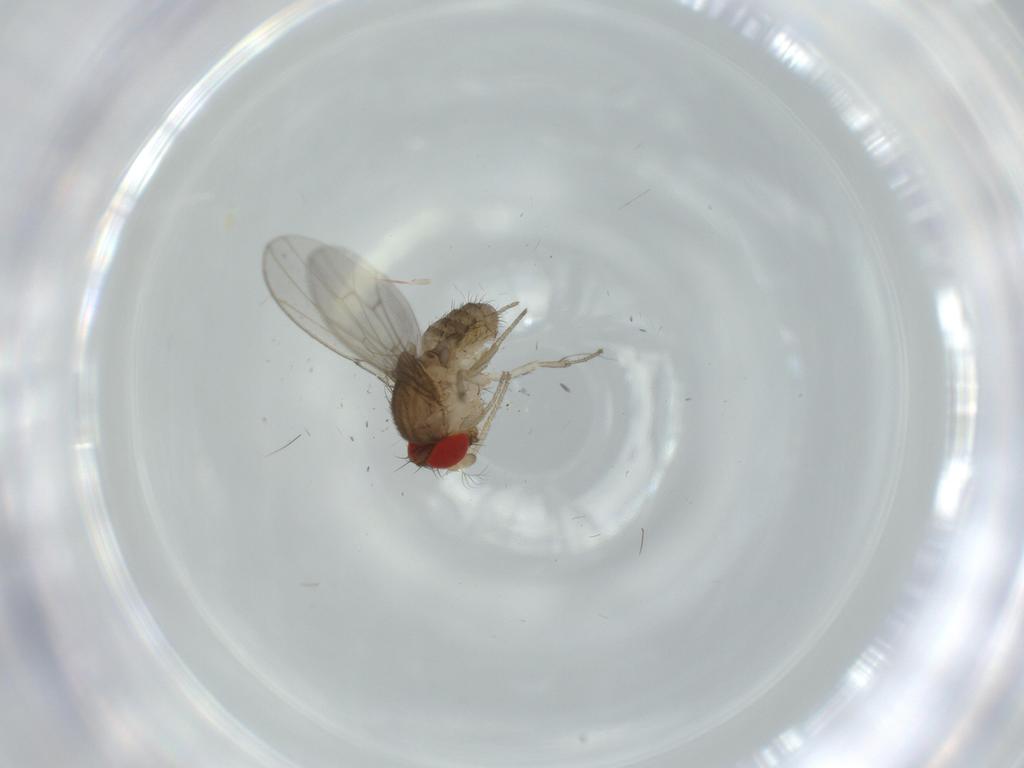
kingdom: Animalia
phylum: Arthropoda
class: Insecta
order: Diptera
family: Drosophilidae
